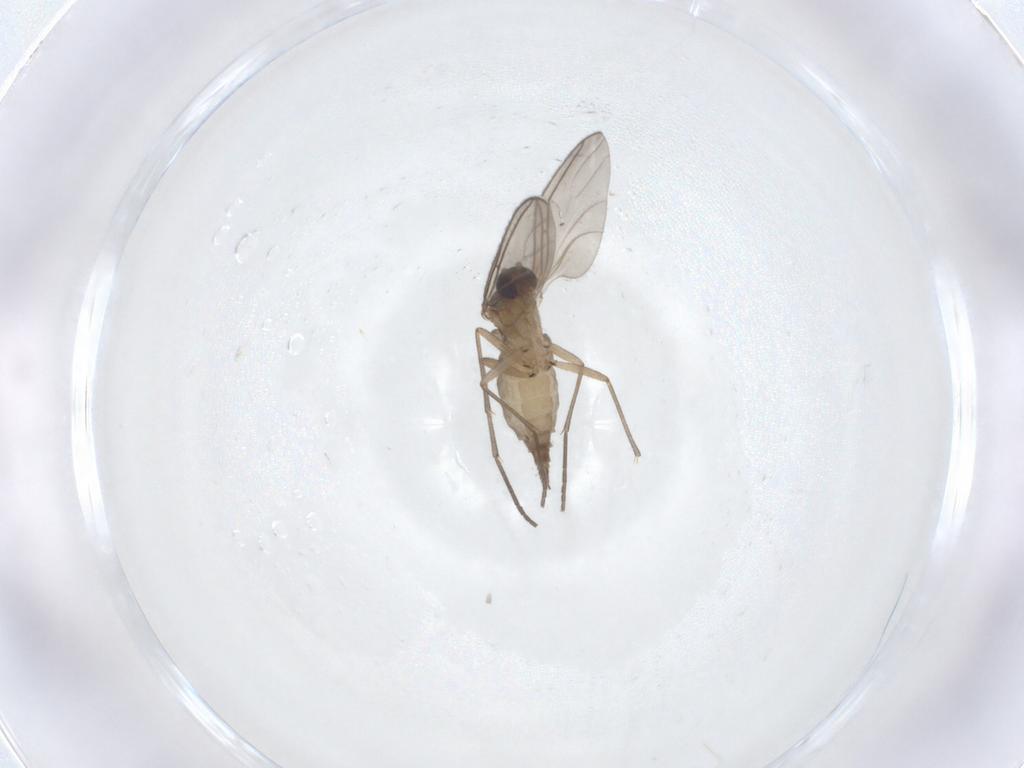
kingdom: Animalia
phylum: Arthropoda
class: Insecta
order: Diptera
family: Sciaridae
